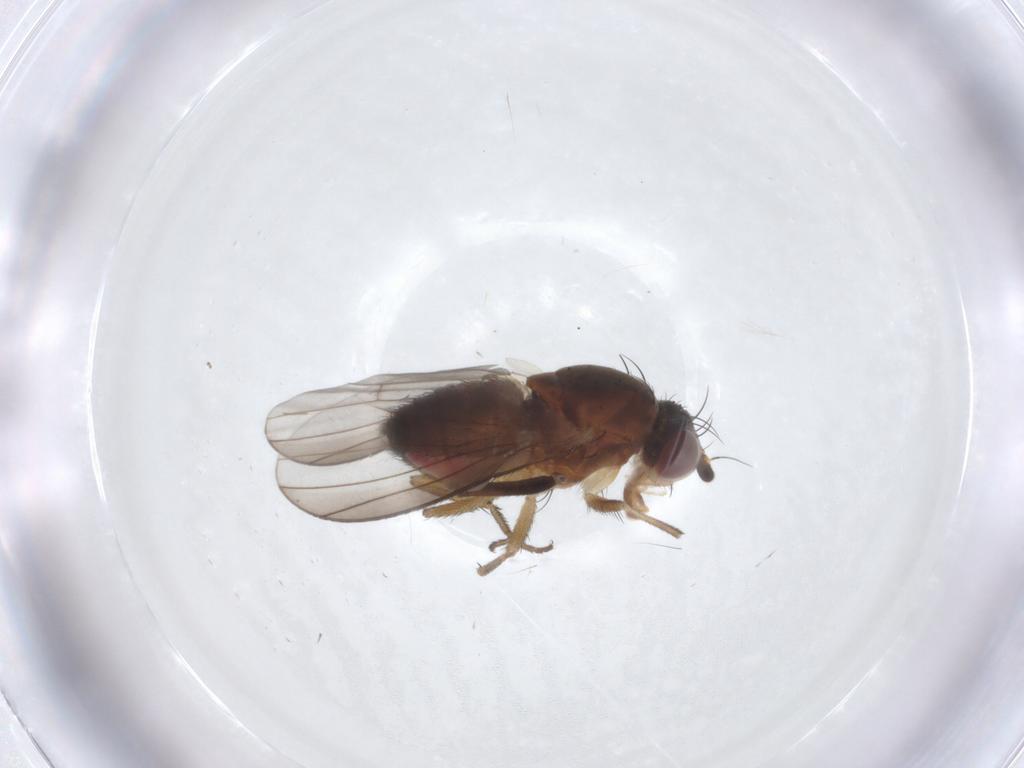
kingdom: Animalia
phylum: Arthropoda
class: Insecta
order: Diptera
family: Heleomyzidae
